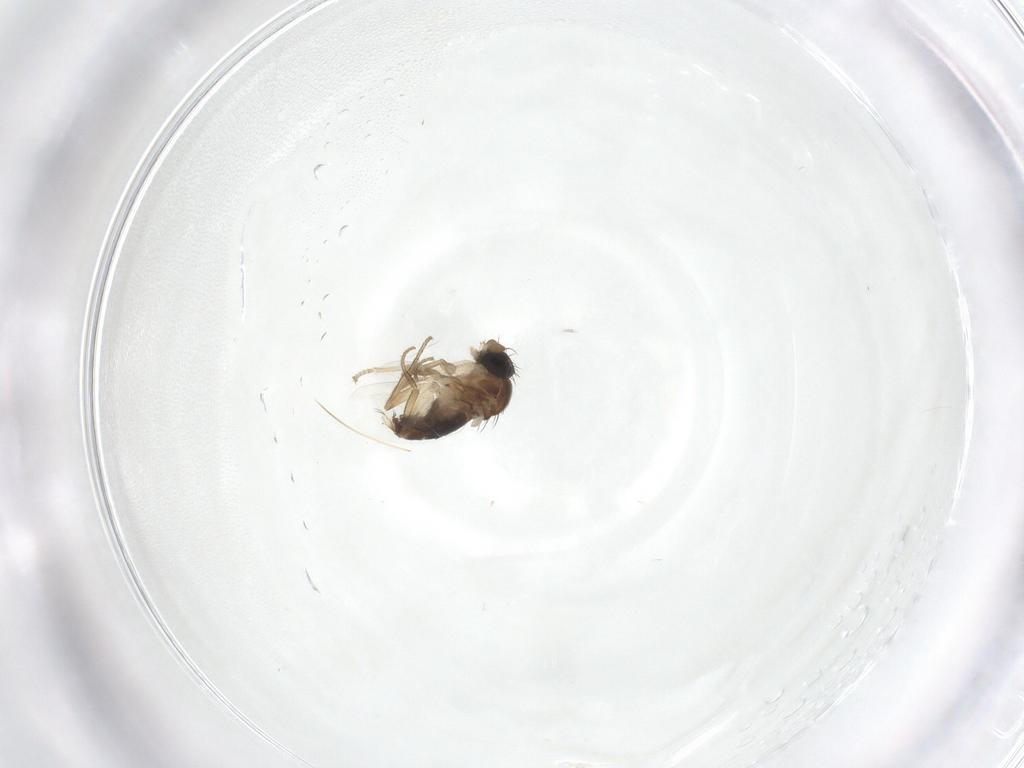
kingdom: Animalia
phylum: Arthropoda
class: Insecta
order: Diptera
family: Phoridae
